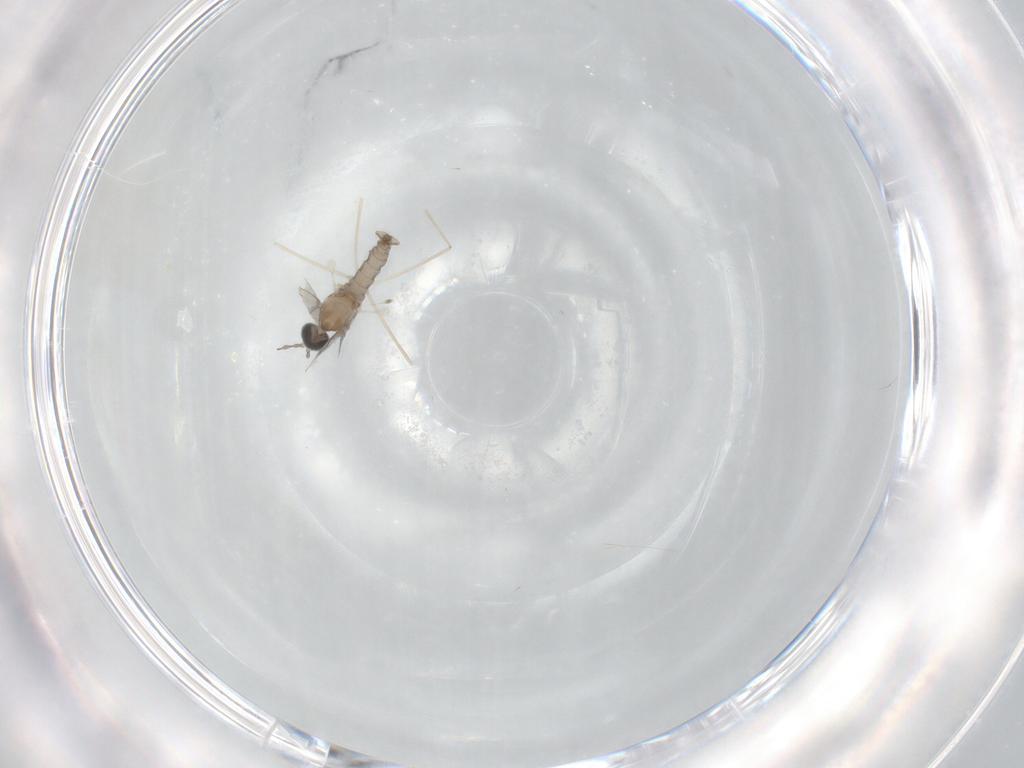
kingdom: Animalia
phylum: Arthropoda
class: Insecta
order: Diptera
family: Cecidomyiidae
